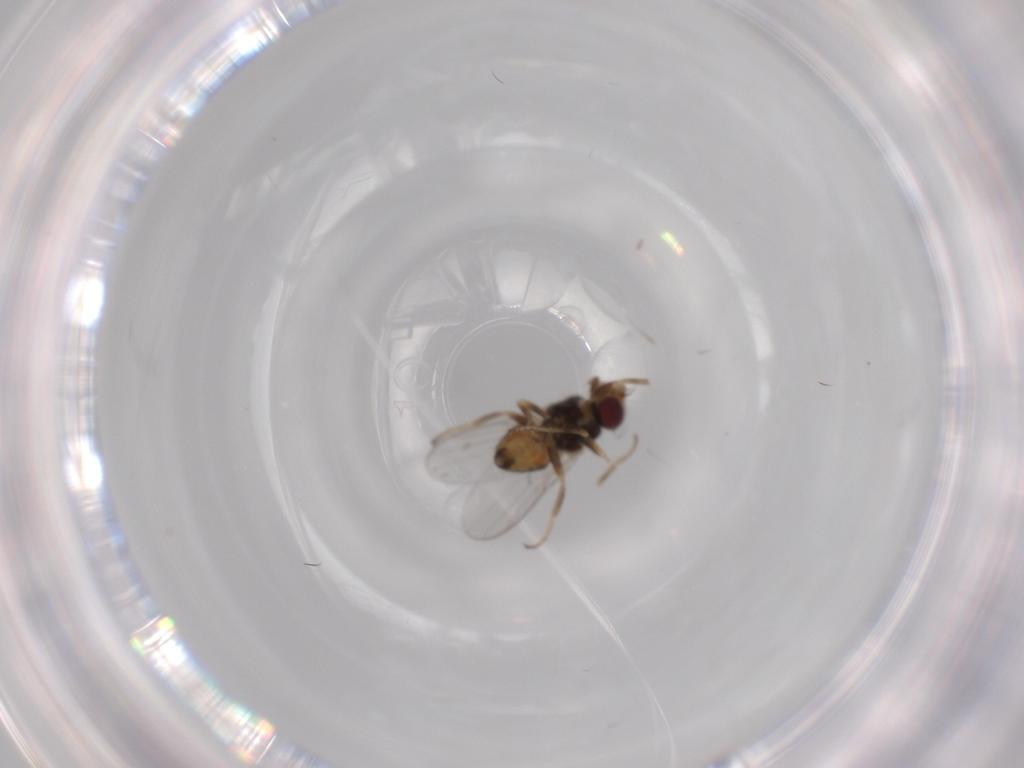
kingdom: Animalia
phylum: Arthropoda
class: Insecta
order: Diptera
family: Chloropidae
